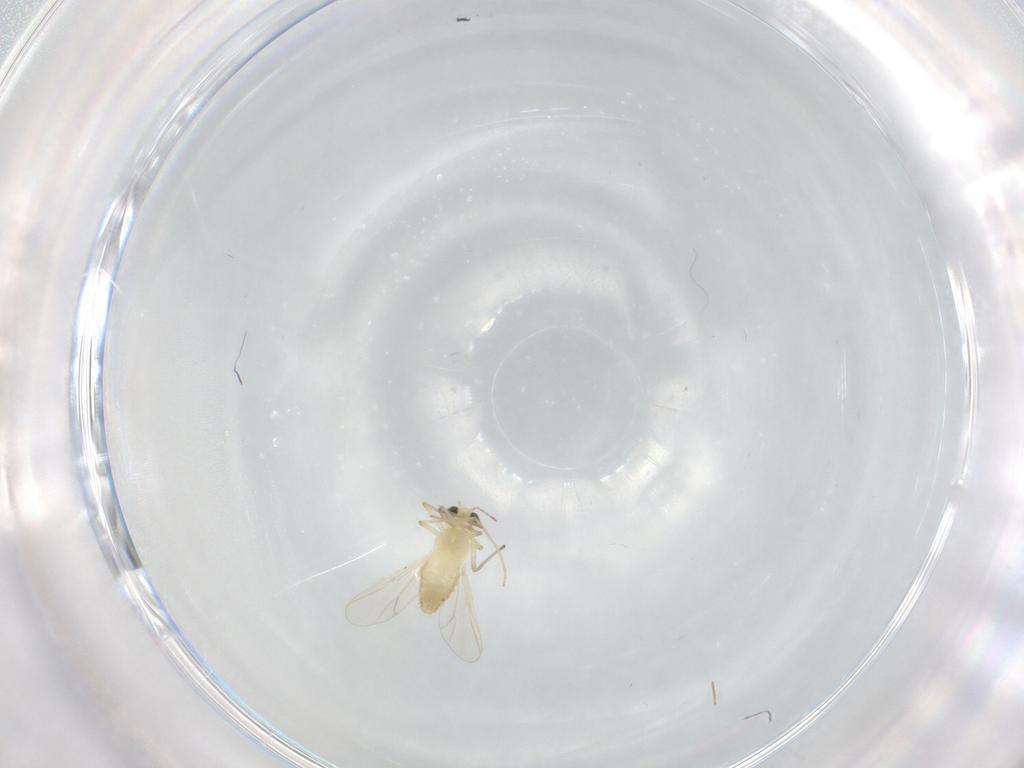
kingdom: Animalia
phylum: Arthropoda
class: Insecta
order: Diptera
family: Chironomidae
